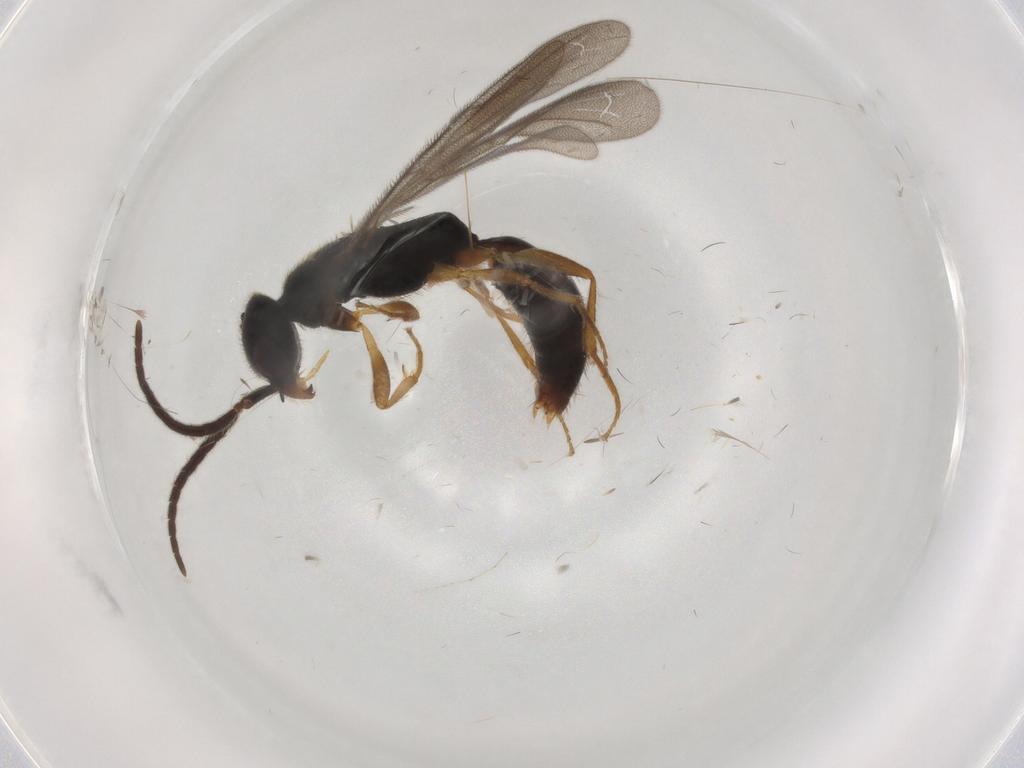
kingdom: Animalia
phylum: Arthropoda
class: Insecta
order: Hymenoptera
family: Bethylidae
